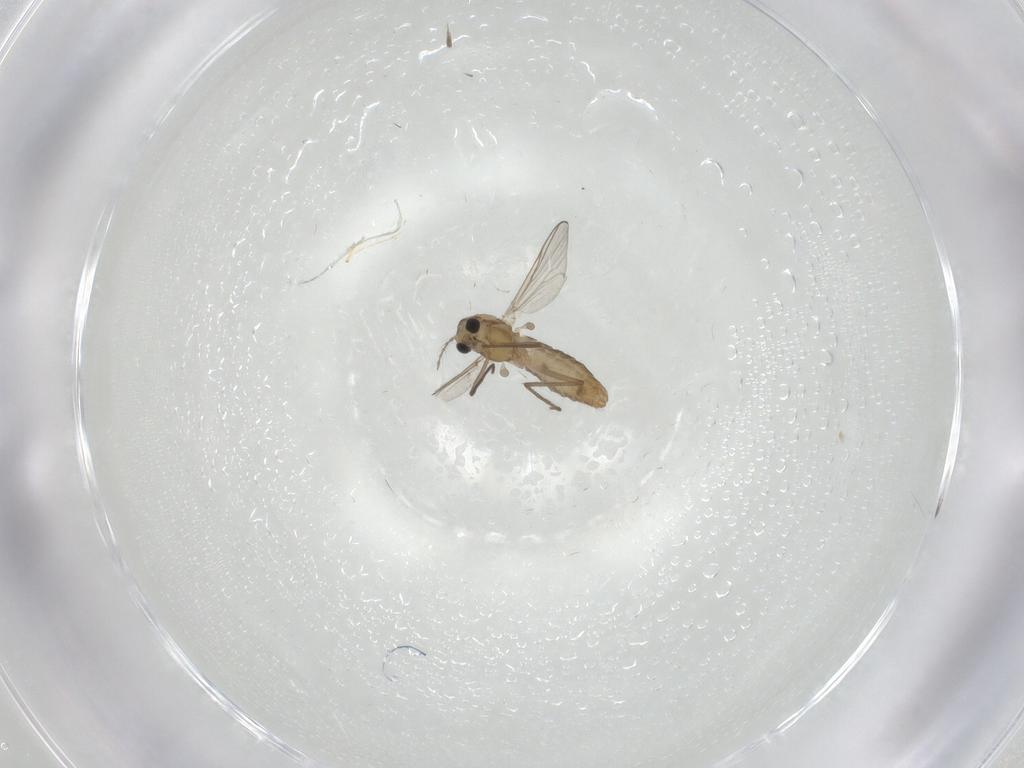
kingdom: Animalia
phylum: Arthropoda
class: Insecta
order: Diptera
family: Chironomidae
